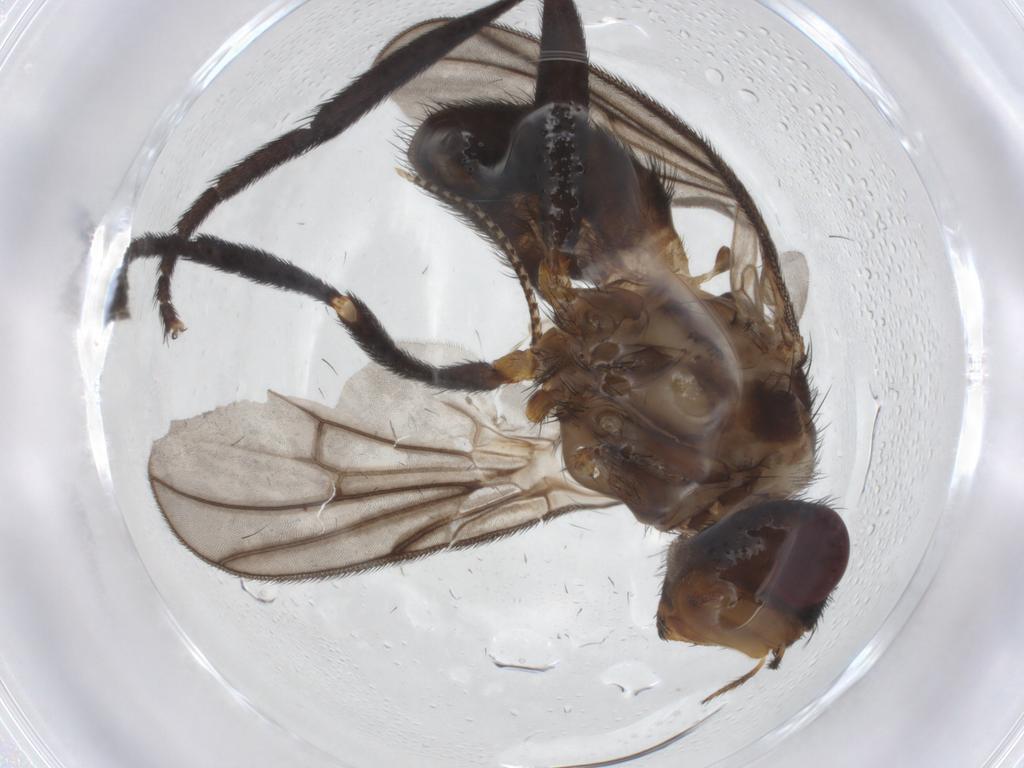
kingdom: Animalia
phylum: Arthropoda
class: Insecta
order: Diptera
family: Calliphoridae
